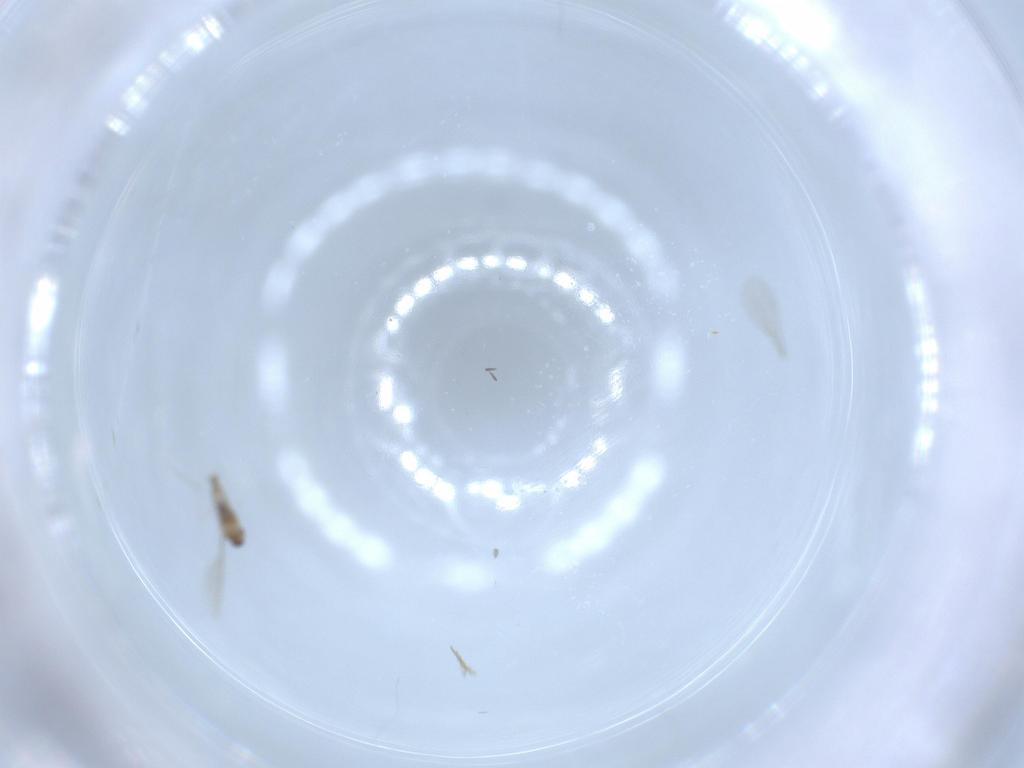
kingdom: Animalia
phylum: Arthropoda
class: Insecta
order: Diptera
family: Cecidomyiidae
